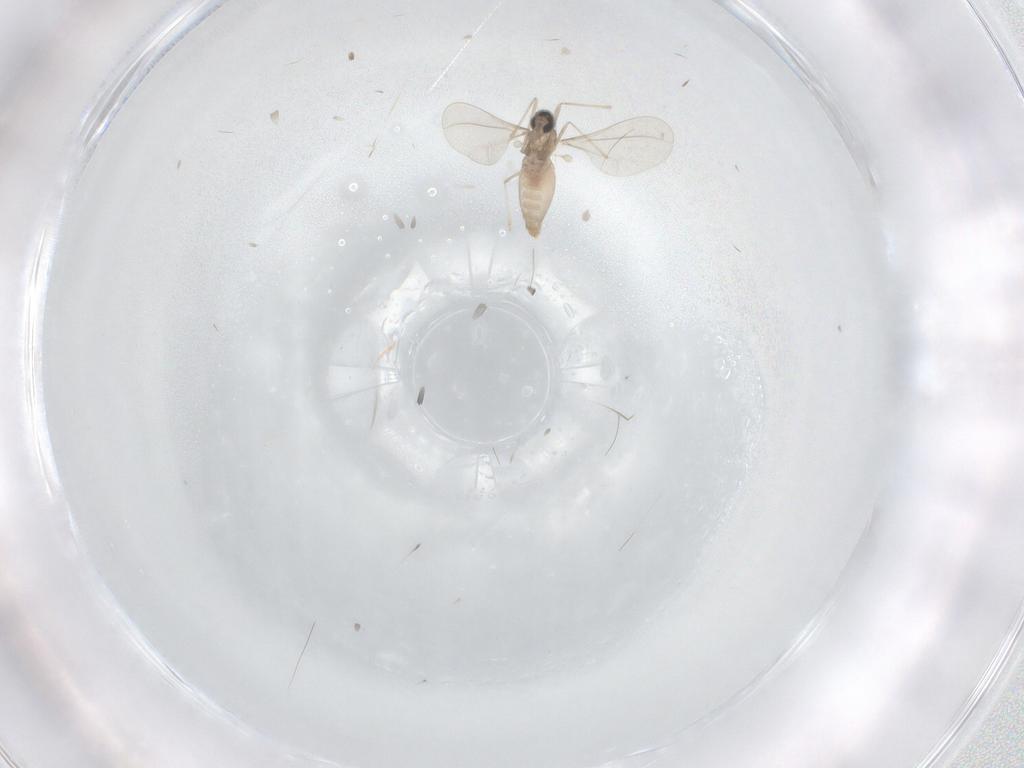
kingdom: Animalia
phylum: Arthropoda
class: Insecta
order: Diptera
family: Cecidomyiidae
